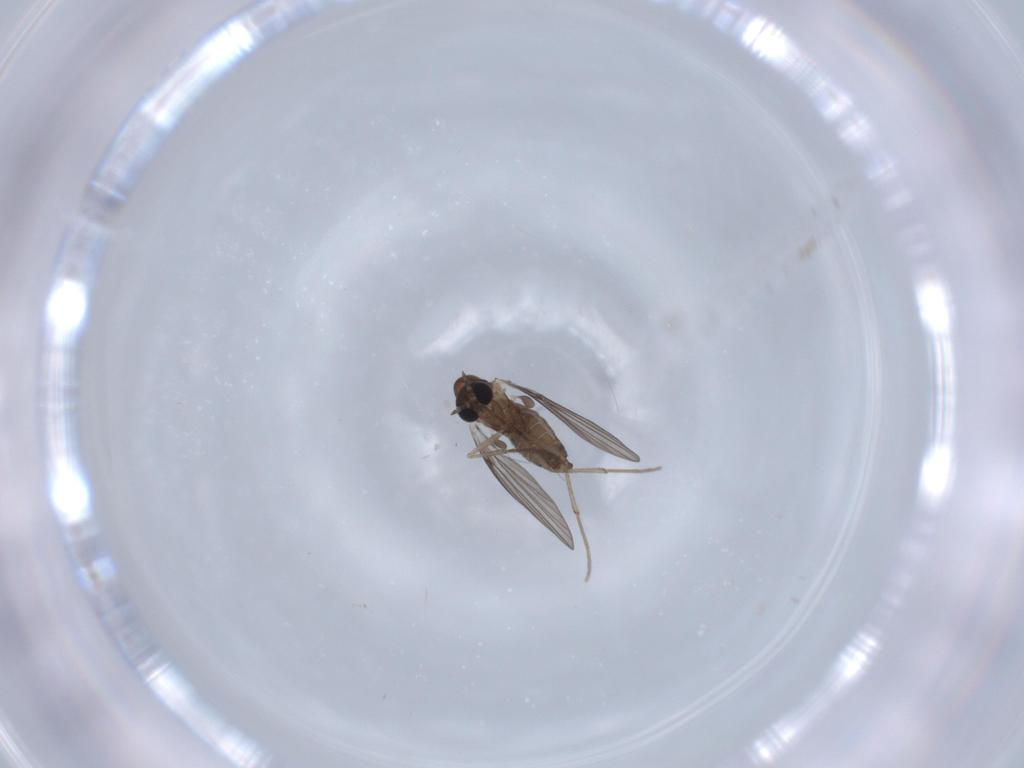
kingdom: Animalia
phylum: Arthropoda
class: Insecta
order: Diptera
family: Psychodidae
